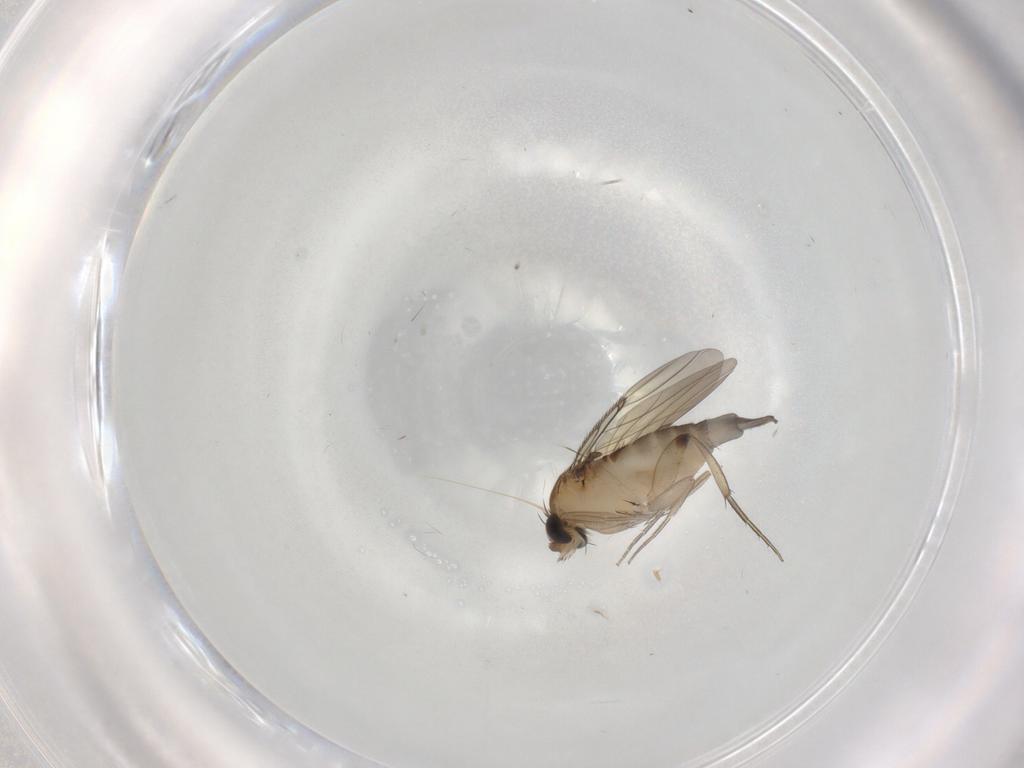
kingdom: Animalia
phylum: Arthropoda
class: Insecta
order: Diptera
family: Phoridae
